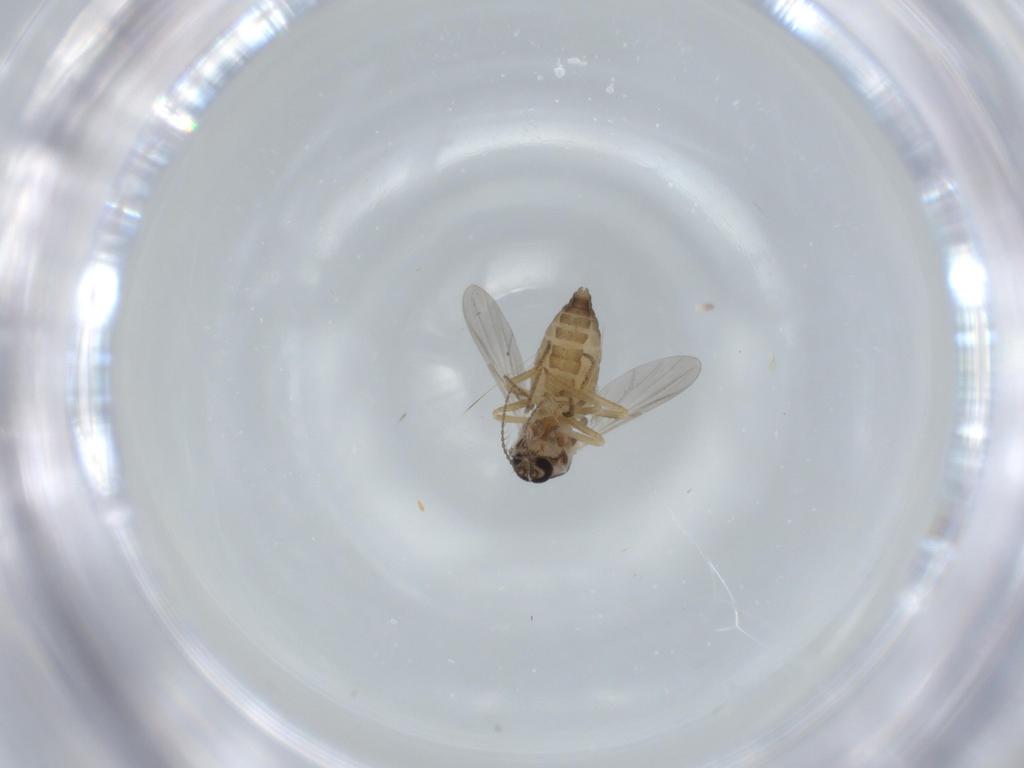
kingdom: Animalia
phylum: Arthropoda
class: Insecta
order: Diptera
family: Ceratopogonidae
